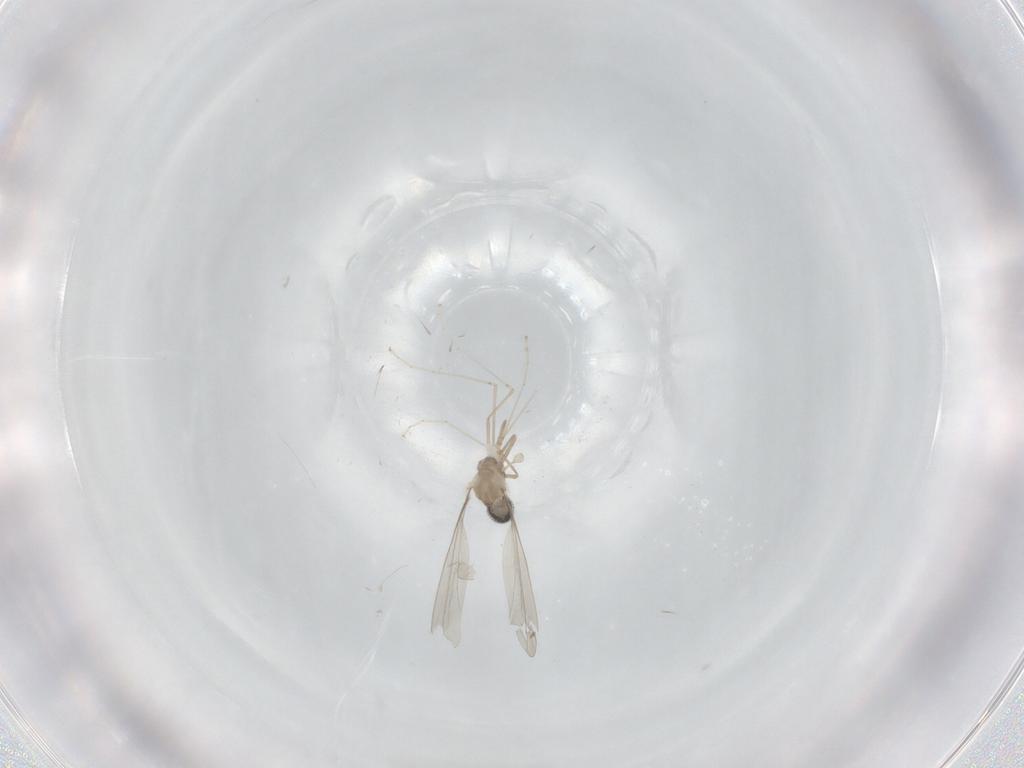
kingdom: Animalia
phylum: Arthropoda
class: Insecta
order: Diptera
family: Cecidomyiidae
